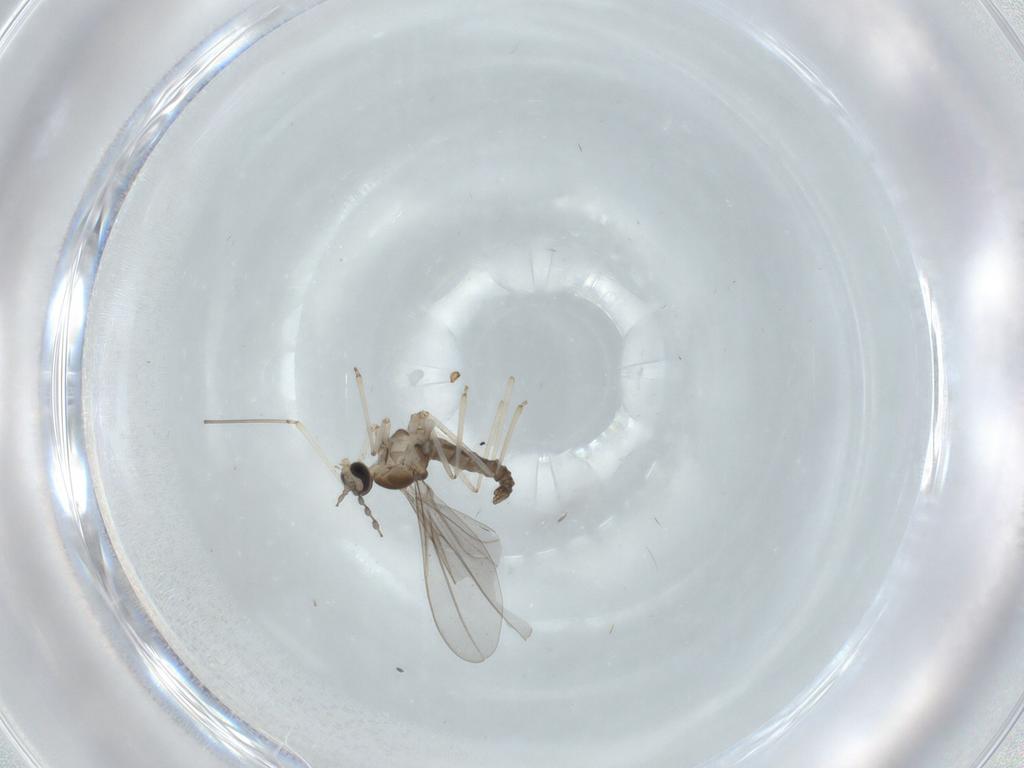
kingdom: Animalia
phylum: Arthropoda
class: Insecta
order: Diptera
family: Cecidomyiidae
